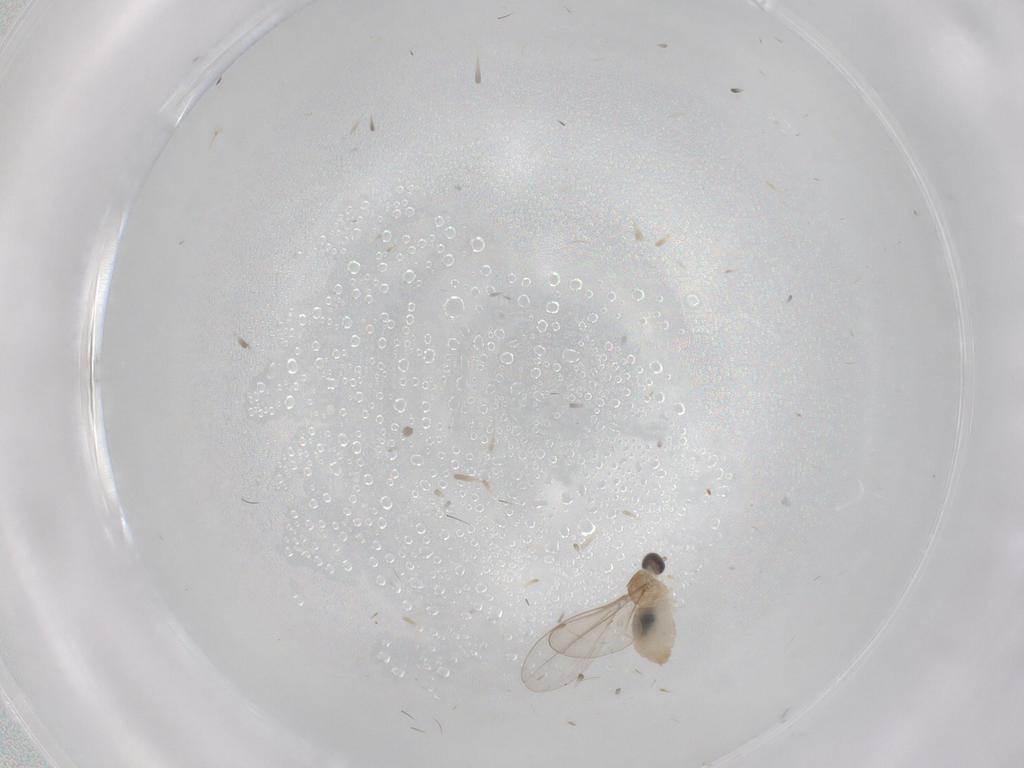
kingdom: Animalia
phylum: Arthropoda
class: Insecta
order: Diptera
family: Cecidomyiidae
